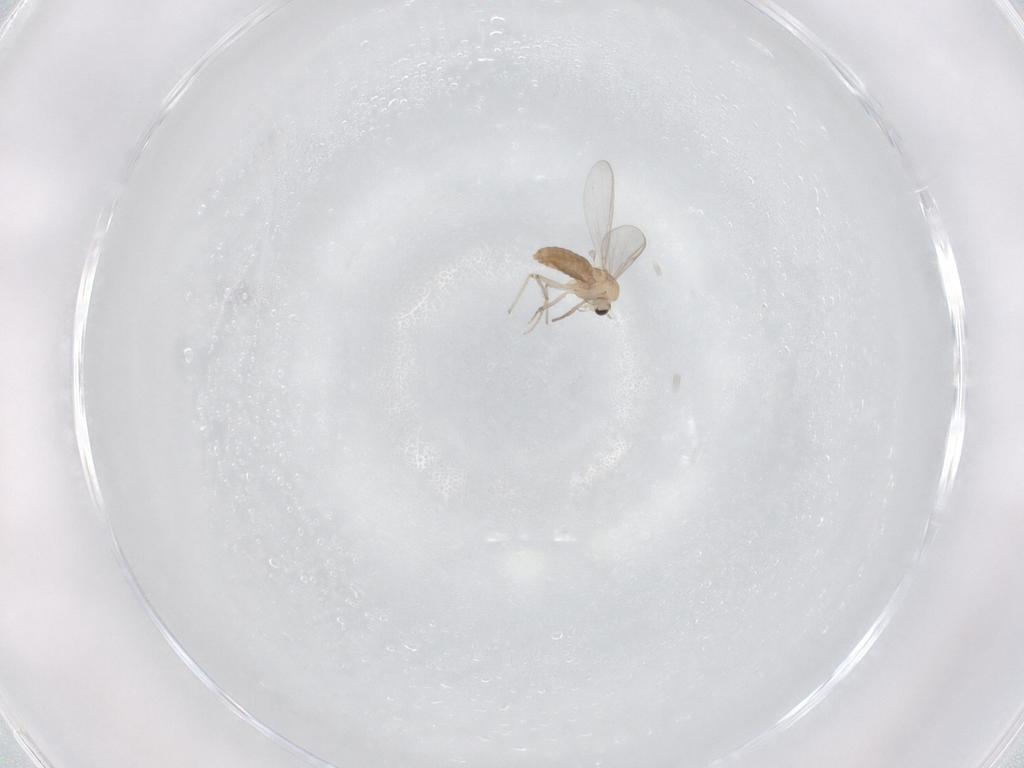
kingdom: Animalia
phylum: Arthropoda
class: Insecta
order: Diptera
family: Chironomidae
